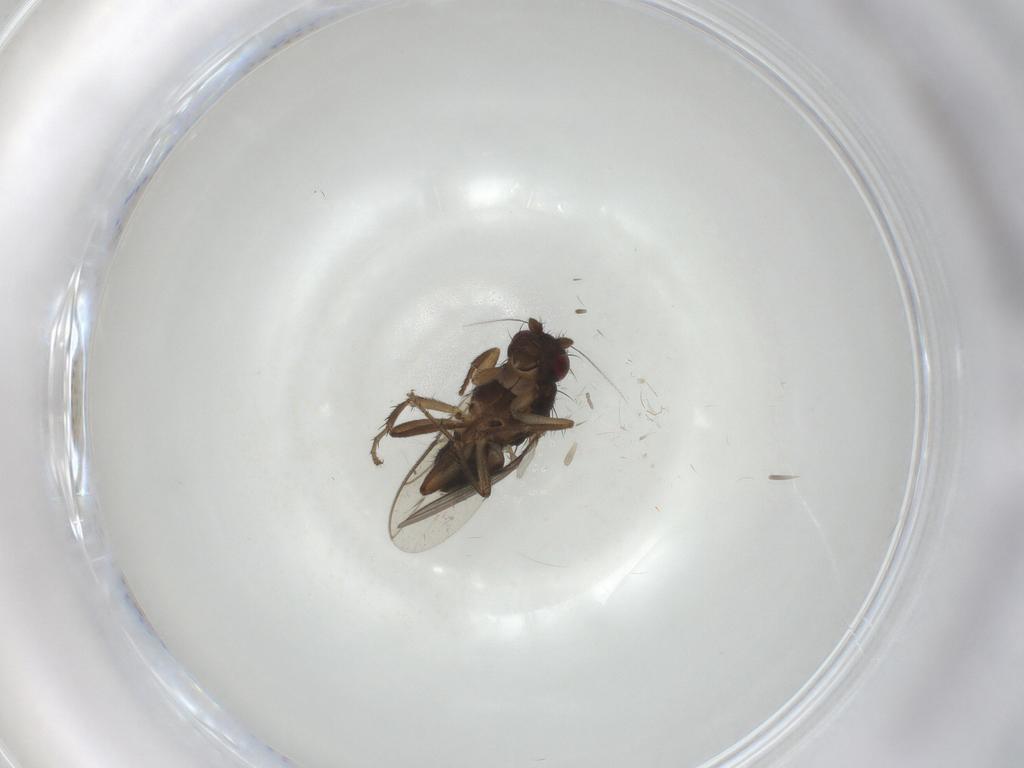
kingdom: Animalia
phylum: Arthropoda
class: Insecta
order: Diptera
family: Sphaeroceridae
